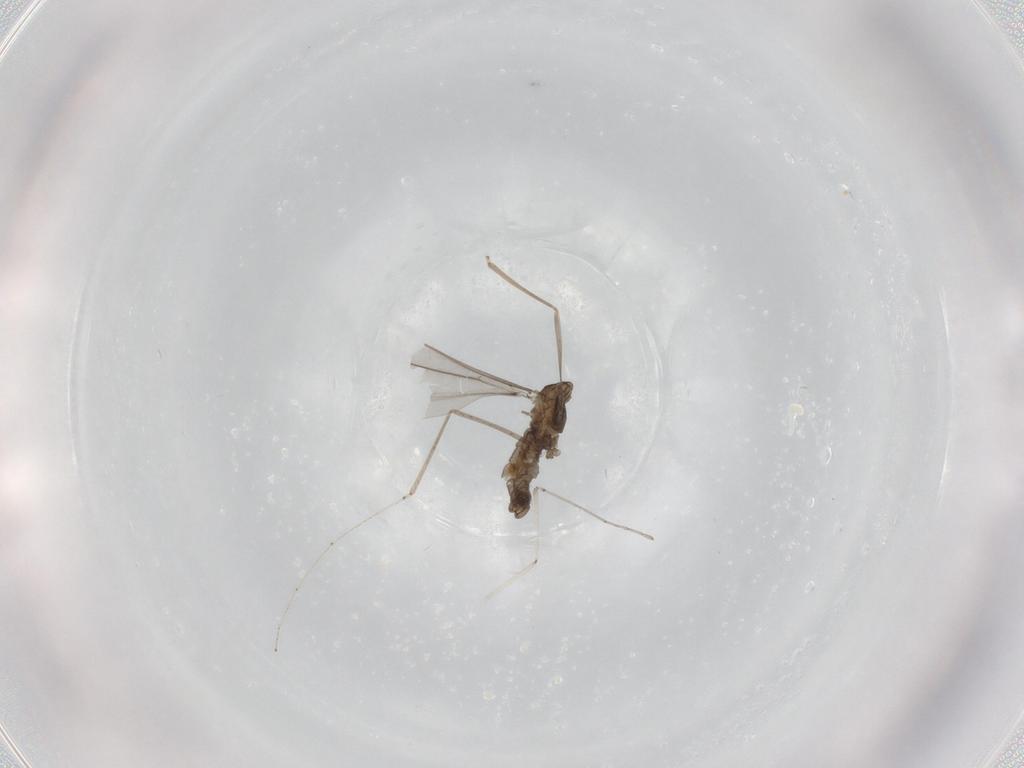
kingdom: Animalia
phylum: Arthropoda
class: Insecta
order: Diptera
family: Cecidomyiidae
